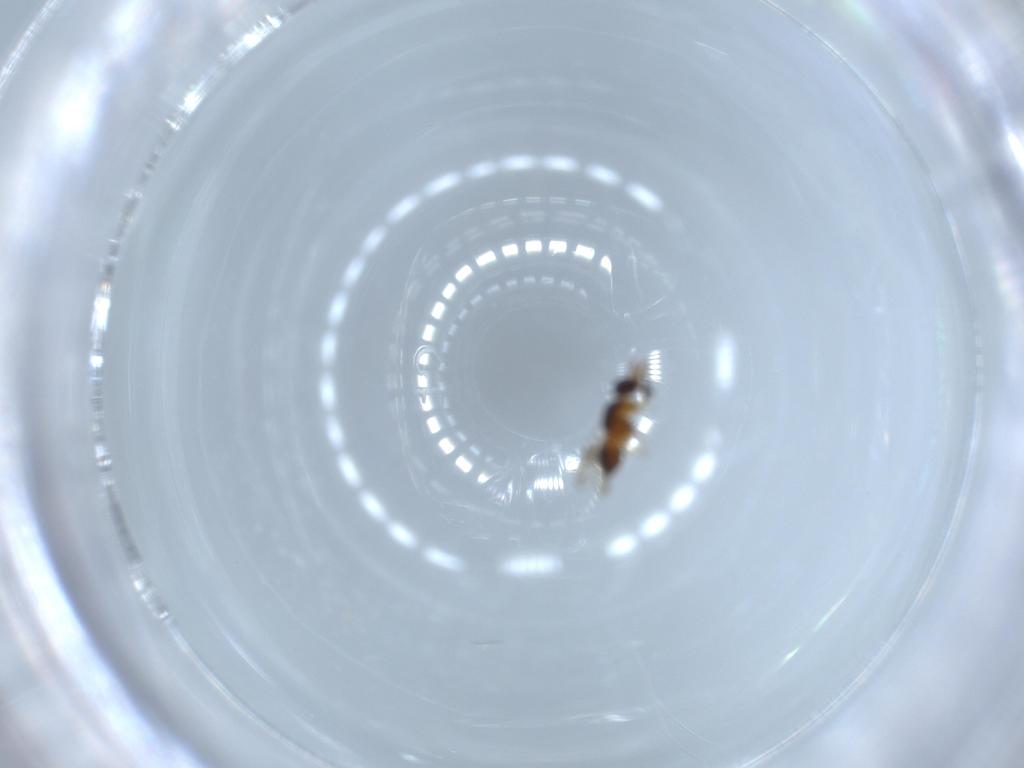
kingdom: Animalia
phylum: Arthropoda
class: Insecta
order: Hymenoptera
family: Ceraphronidae
